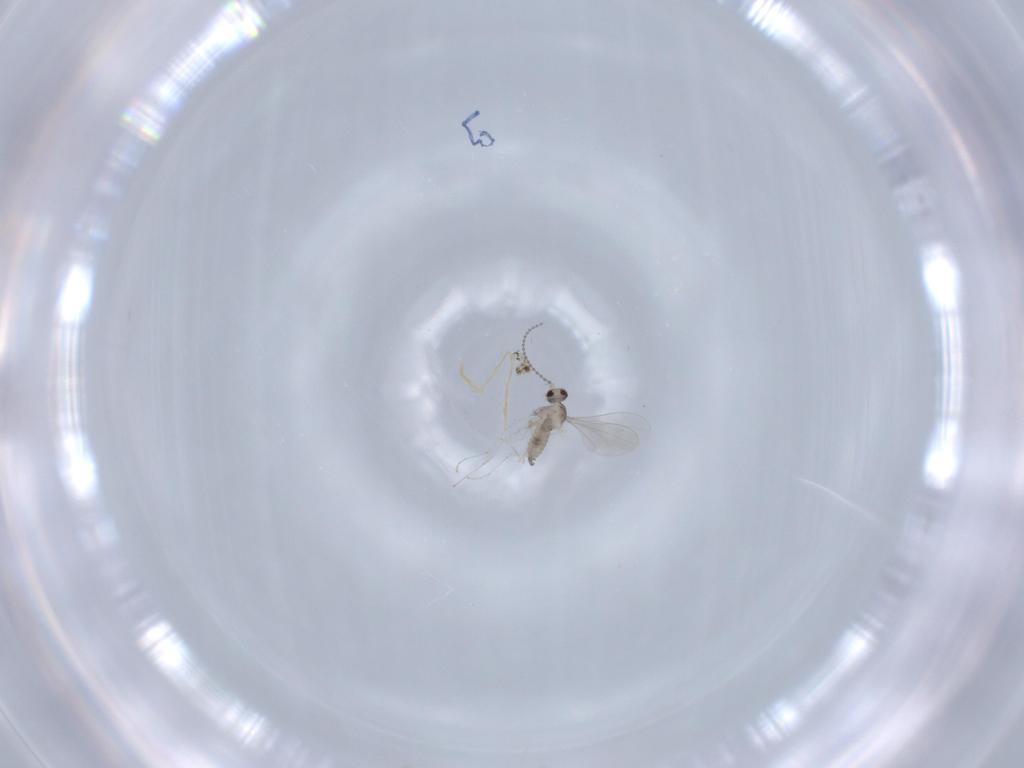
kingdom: Animalia
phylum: Arthropoda
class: Insecta
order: Diptera
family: Cecidomyiidae
